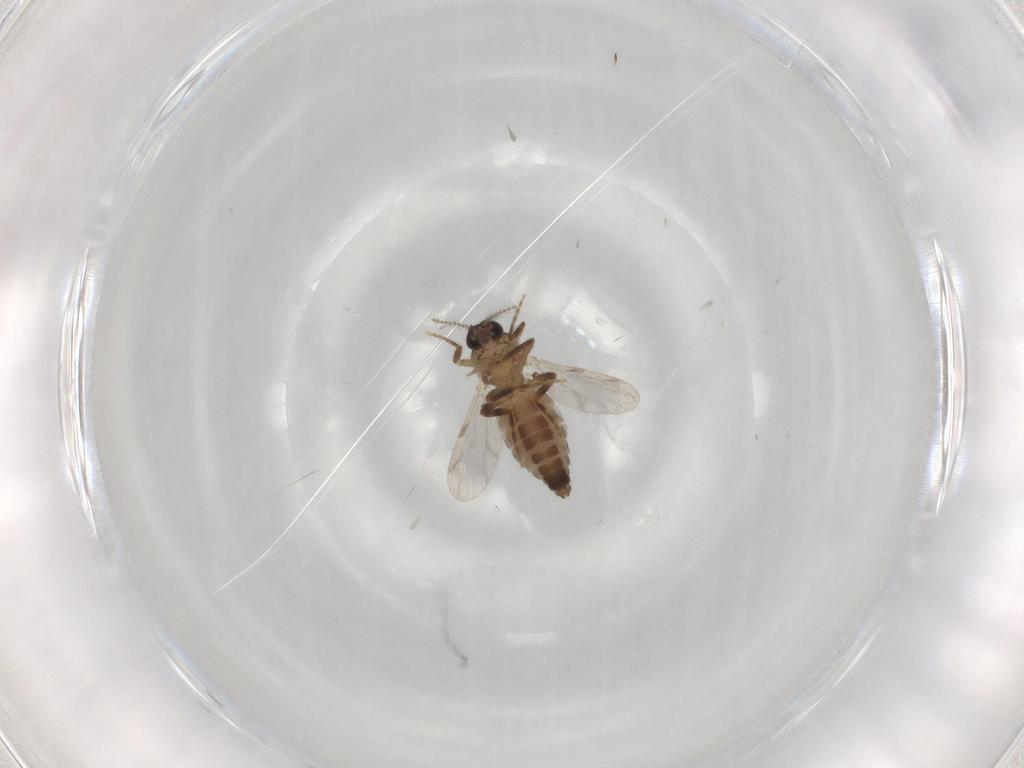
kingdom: Animalia
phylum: Arthropoda
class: Insecta
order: Diptera
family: Ceratopogonidae
